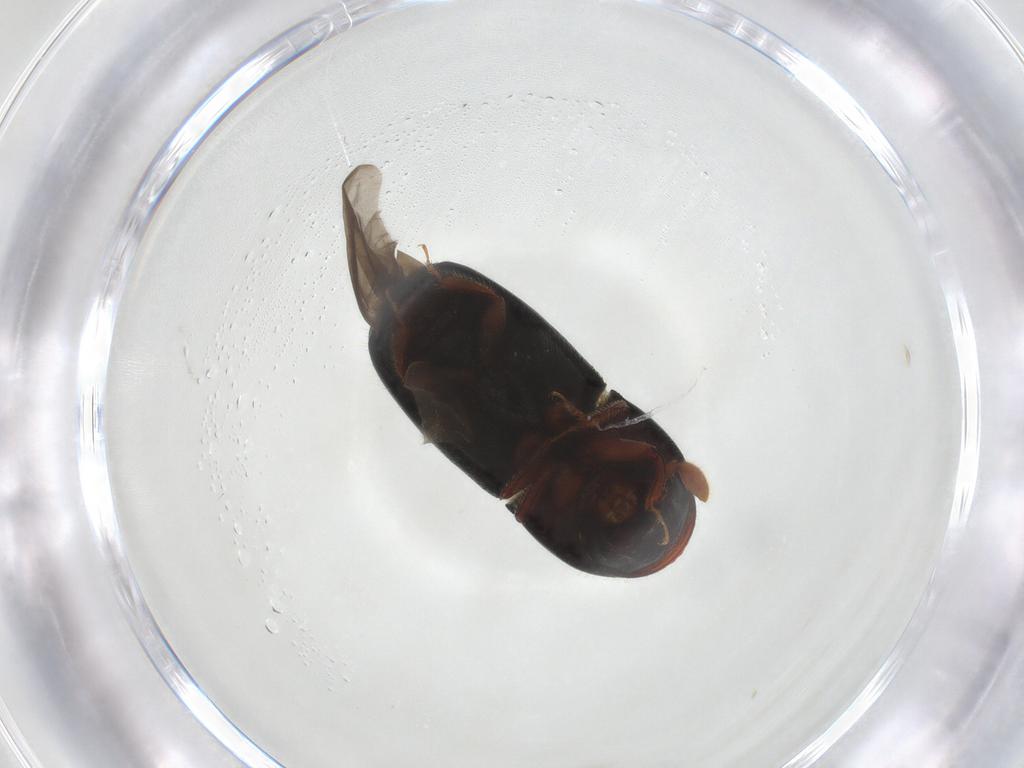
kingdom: Animalia
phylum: Arthropoda
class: Insecta
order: Coleoptera
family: Curculionidae
